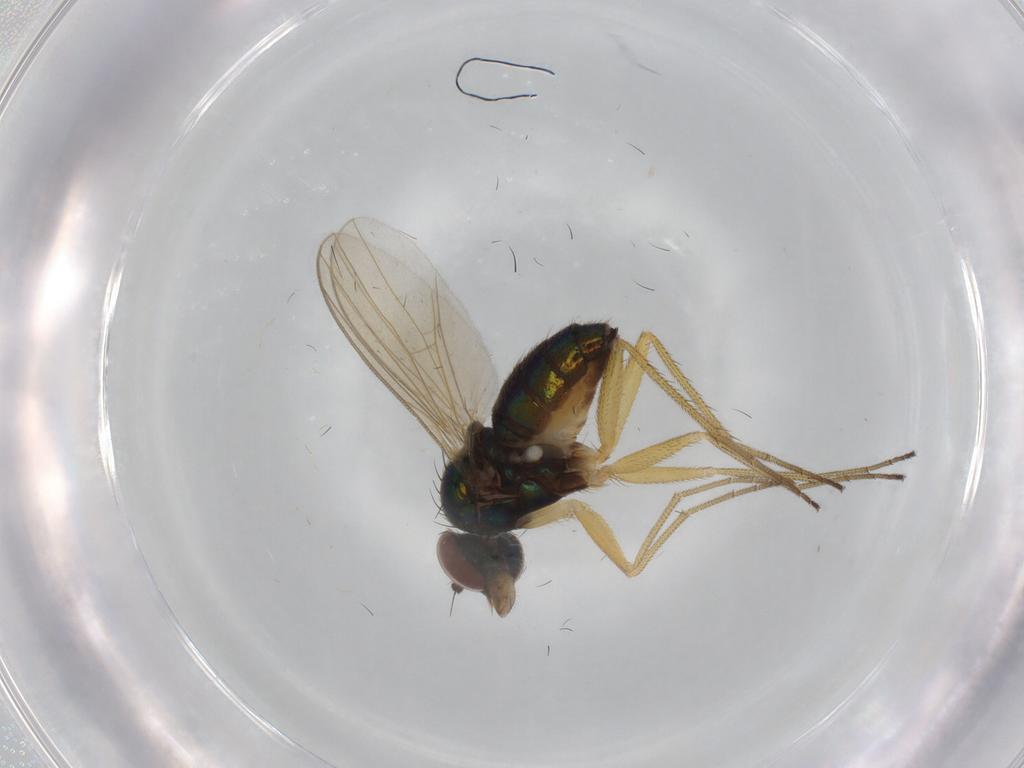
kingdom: Animalia
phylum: Arthropoda
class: Insecta
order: Diptera
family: Dolichopodidae
